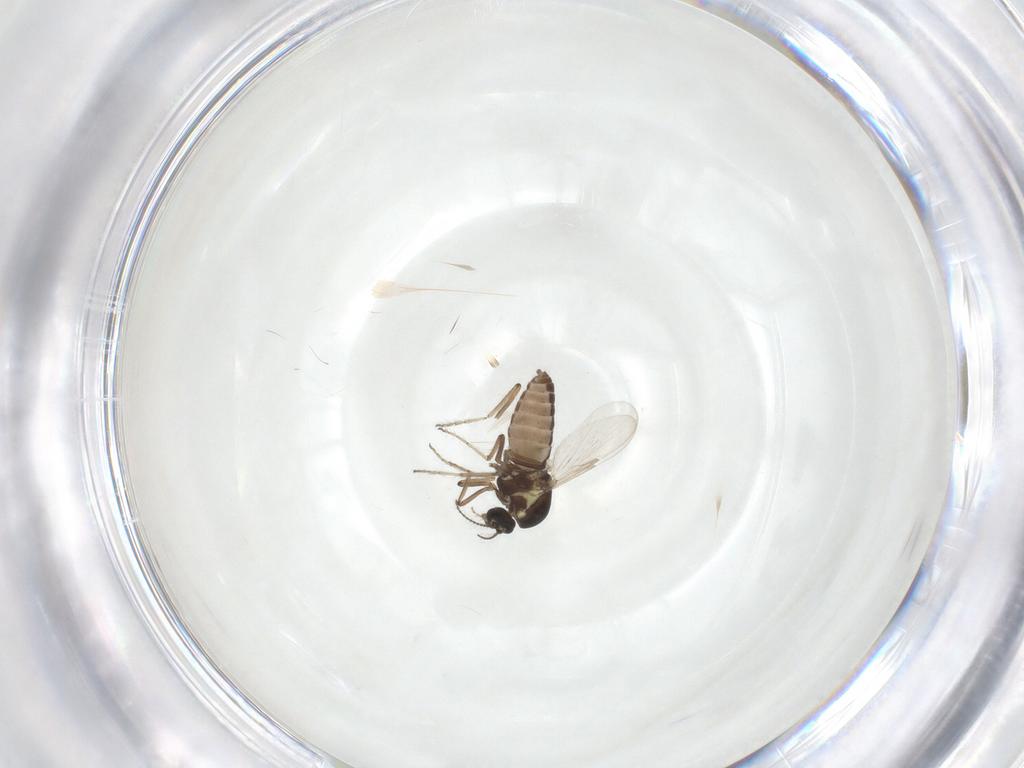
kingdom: Animalia
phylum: Arthropoda
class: Insecta
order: Diptera
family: Ceratopogonidae
